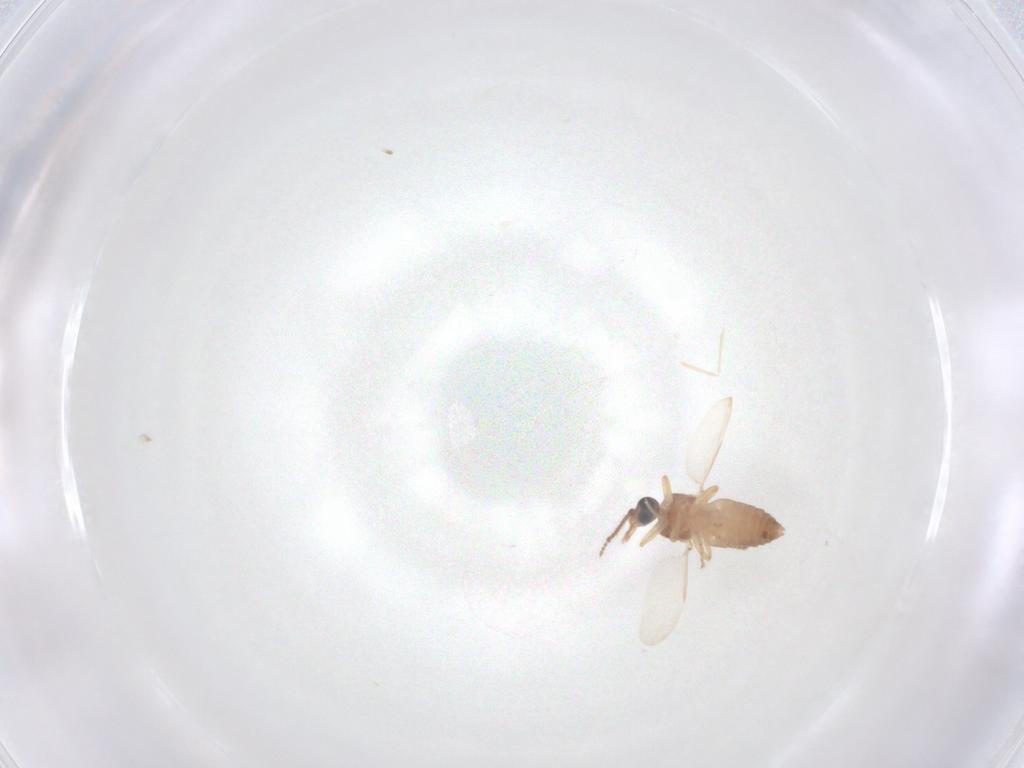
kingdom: Animalia
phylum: Arthropoda
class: Insecta
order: Diptera
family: Ceratopogonidae
